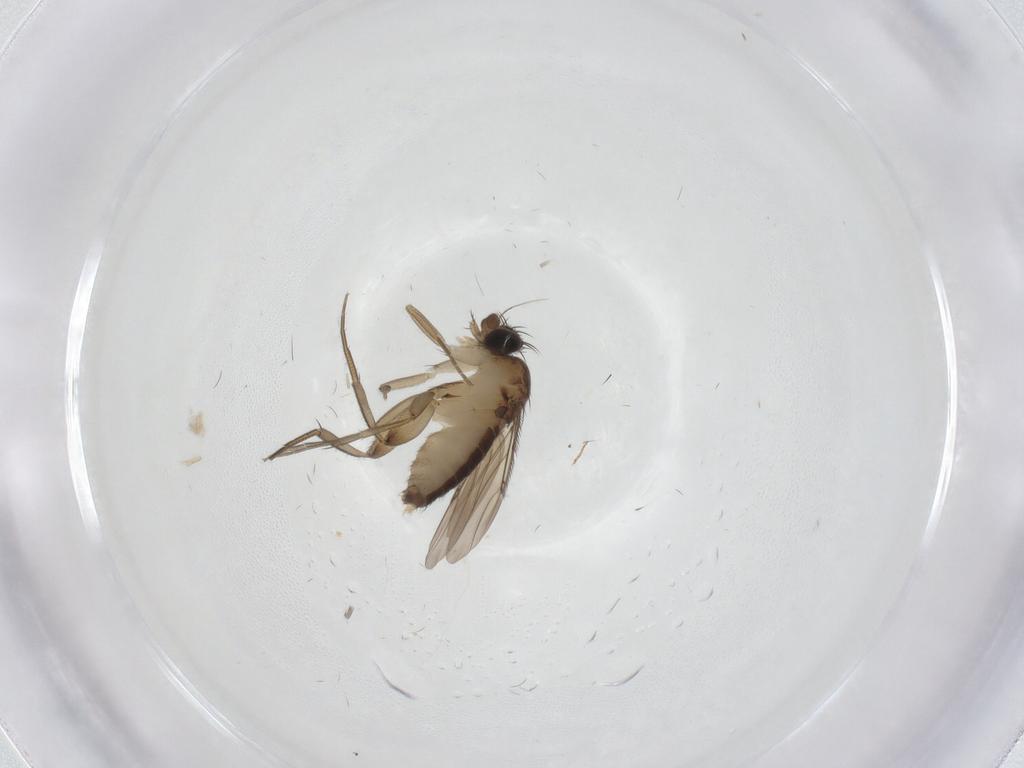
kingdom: Animalia
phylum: Arthropoda
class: Insecta
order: Diptera
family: Phoridae
